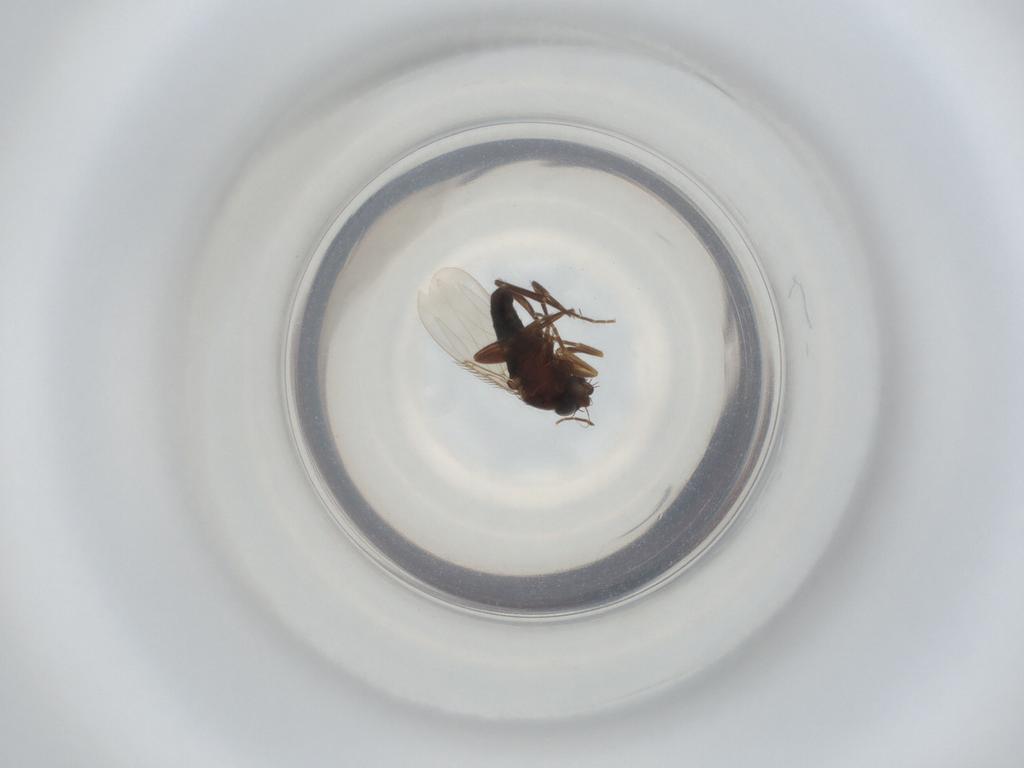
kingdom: Animalia
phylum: Arthropoda
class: Insecta
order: Diptera
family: Phoridae
